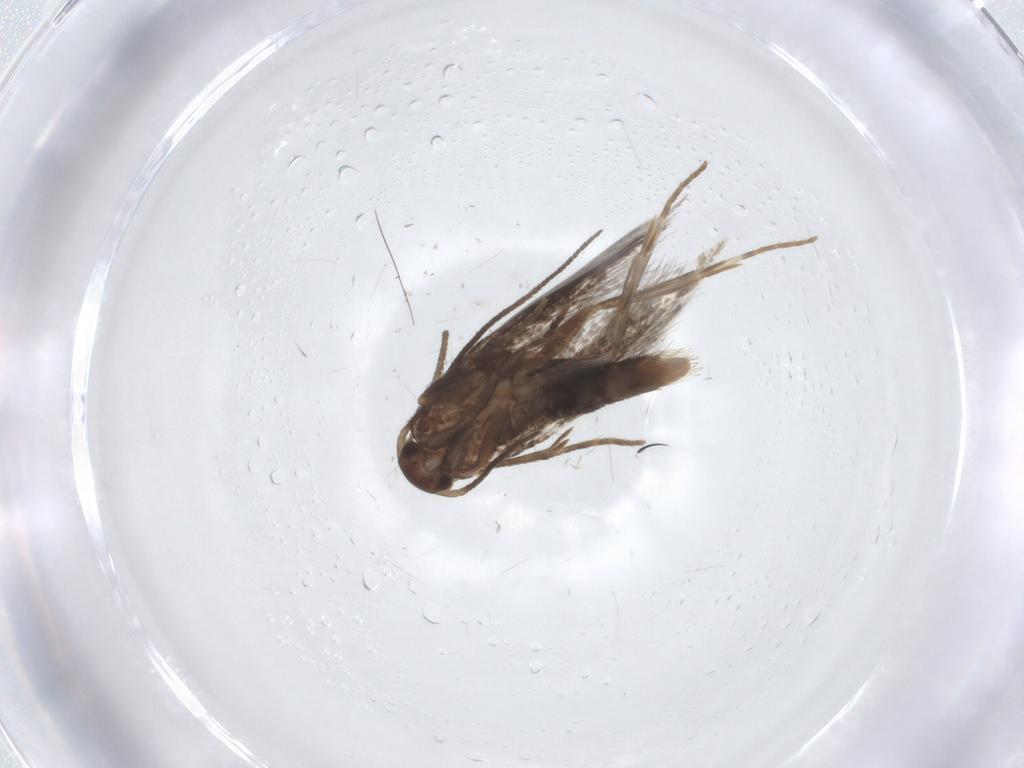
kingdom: Animalia
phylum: Arthropoda
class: Insecta
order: Lepidoptera
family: Elachistidae
